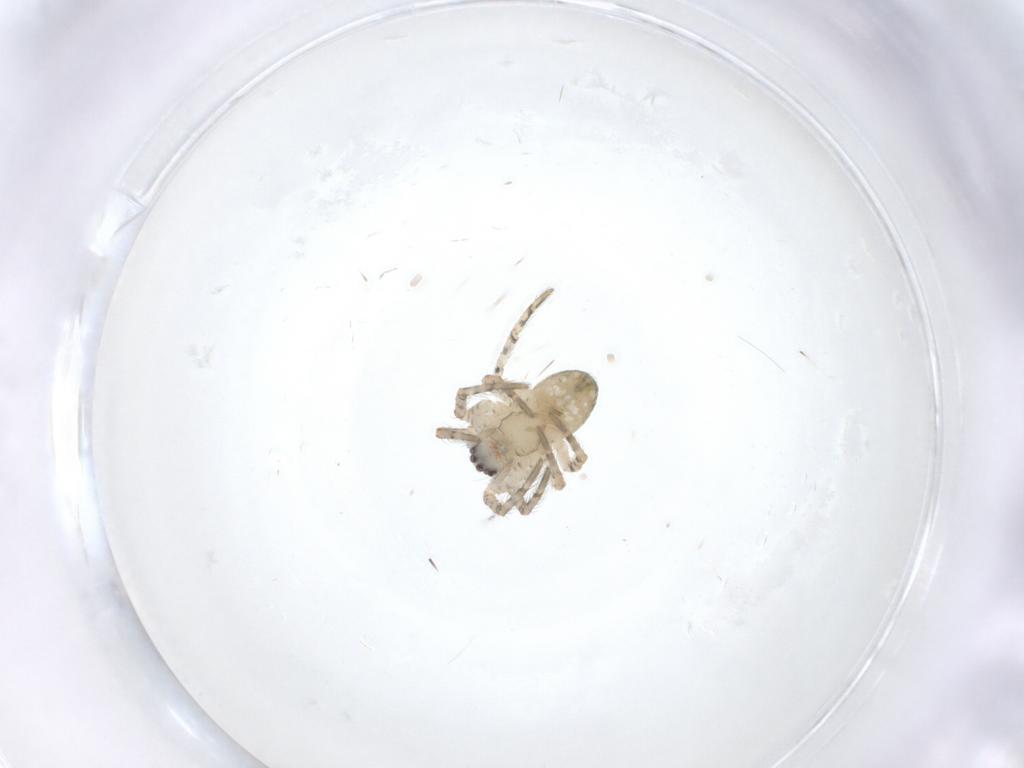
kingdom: Animalia
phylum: Arthropoda
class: Arachnida
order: Araneae
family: Araneidae
